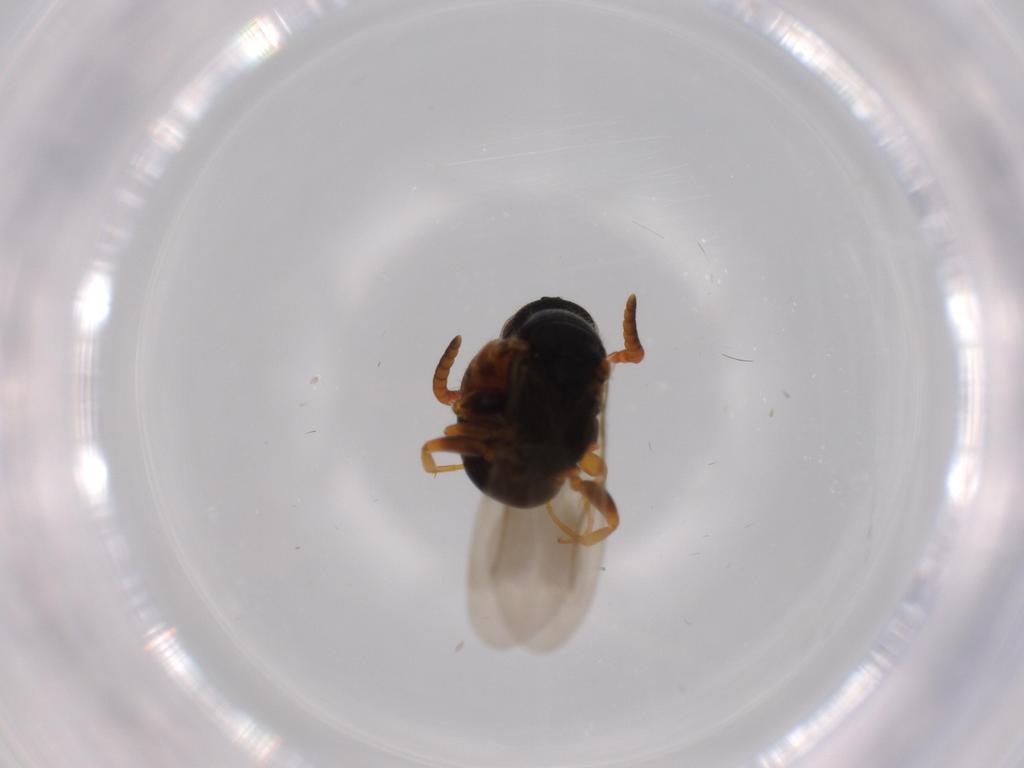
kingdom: Animalia
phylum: Arthropoda
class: Insecta
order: Hymenoptera
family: Bethylidae
